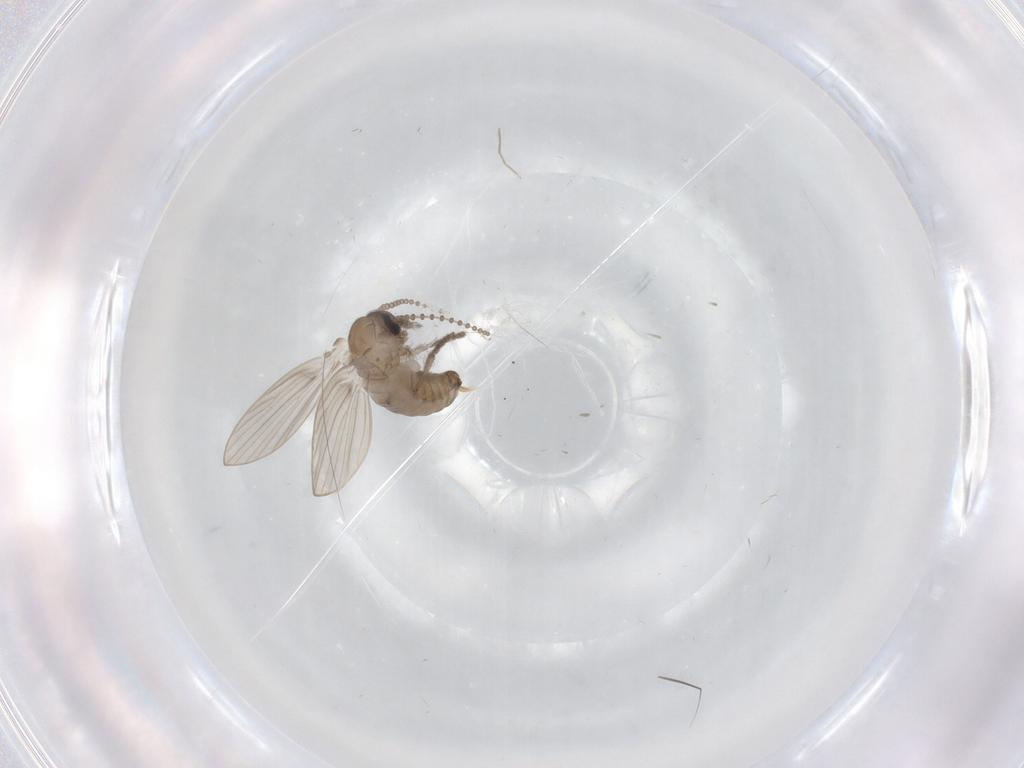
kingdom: Animalia
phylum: Arthropoda
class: Insecta
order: Diptera
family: Psychodidae
